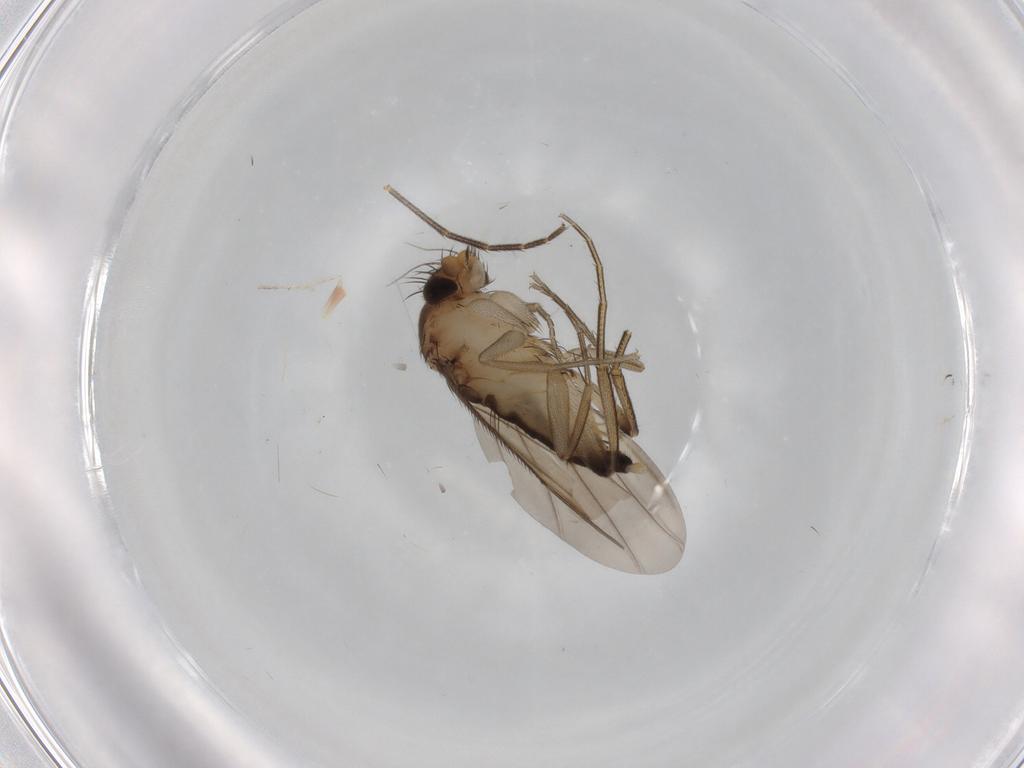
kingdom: Animalia
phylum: Arthropoda
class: Insecta
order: Diptera
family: Phoridae
